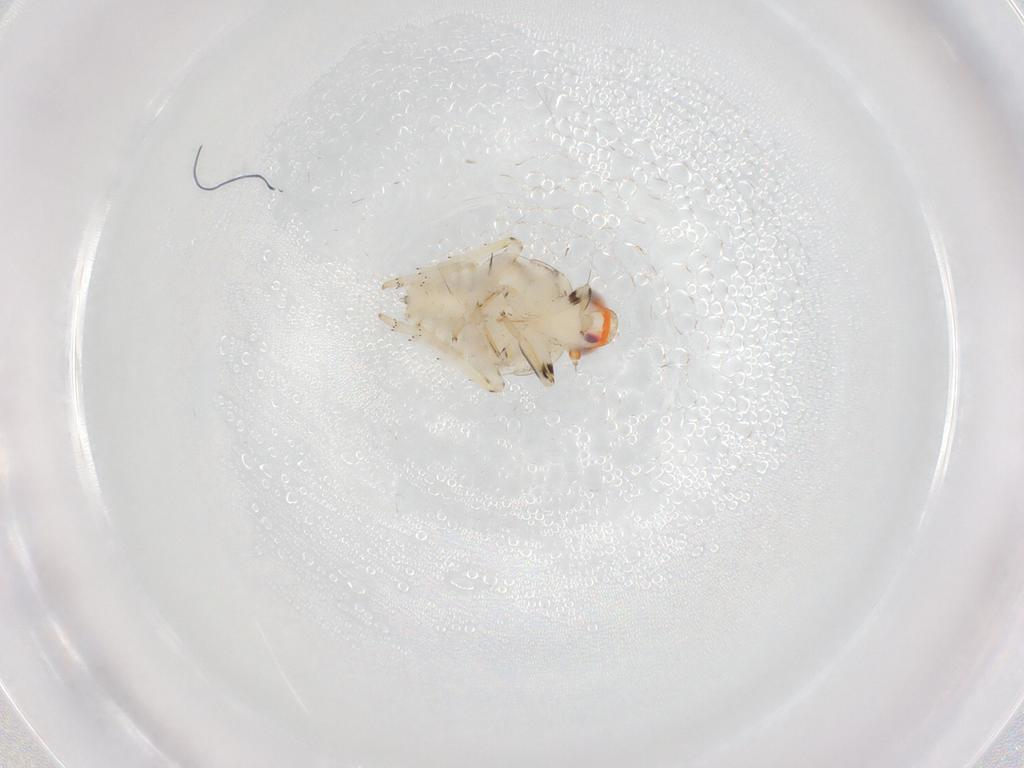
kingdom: Animalia
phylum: Arthropoda
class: Insecta
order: Hemiptera
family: Issidae
